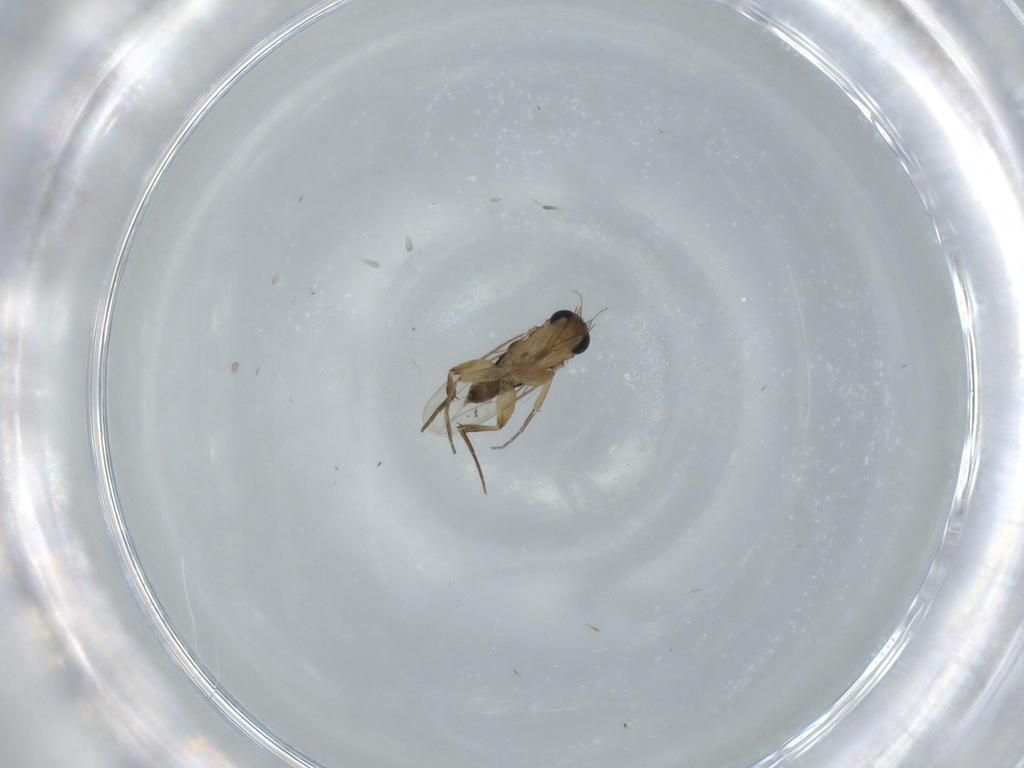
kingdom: Animalia
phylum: Arthropoda
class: Insecta
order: Diptera
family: Phoridae
